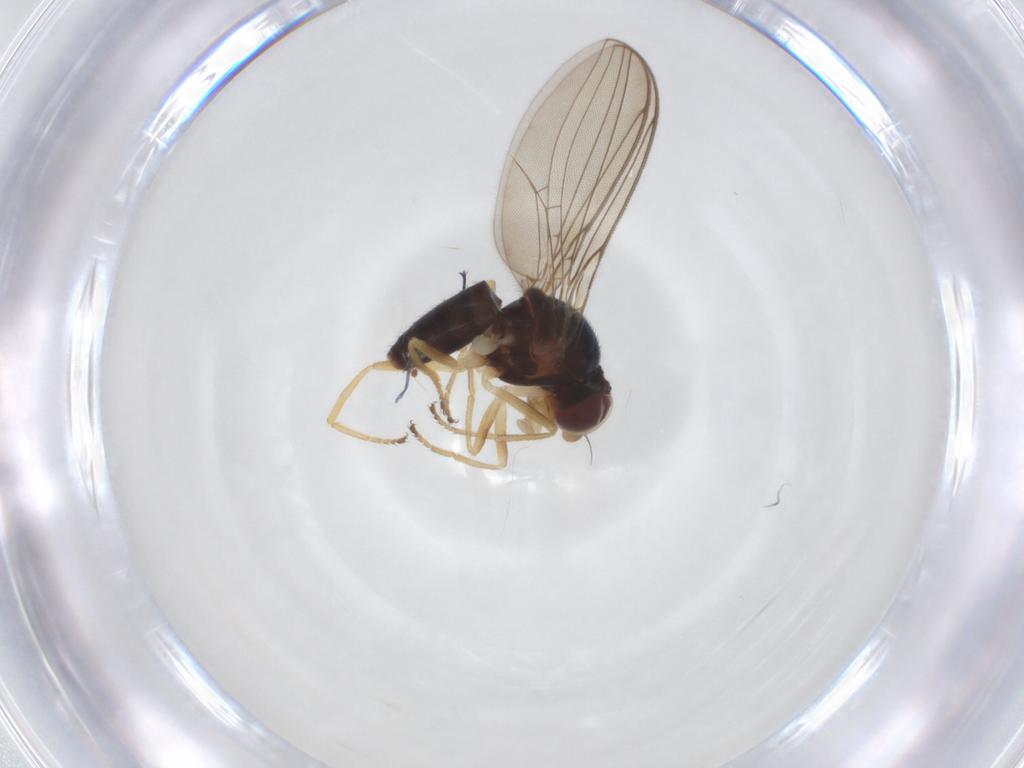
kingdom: Animalia
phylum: Arthropoda
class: Insecta
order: Diptera
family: Asteiidae
